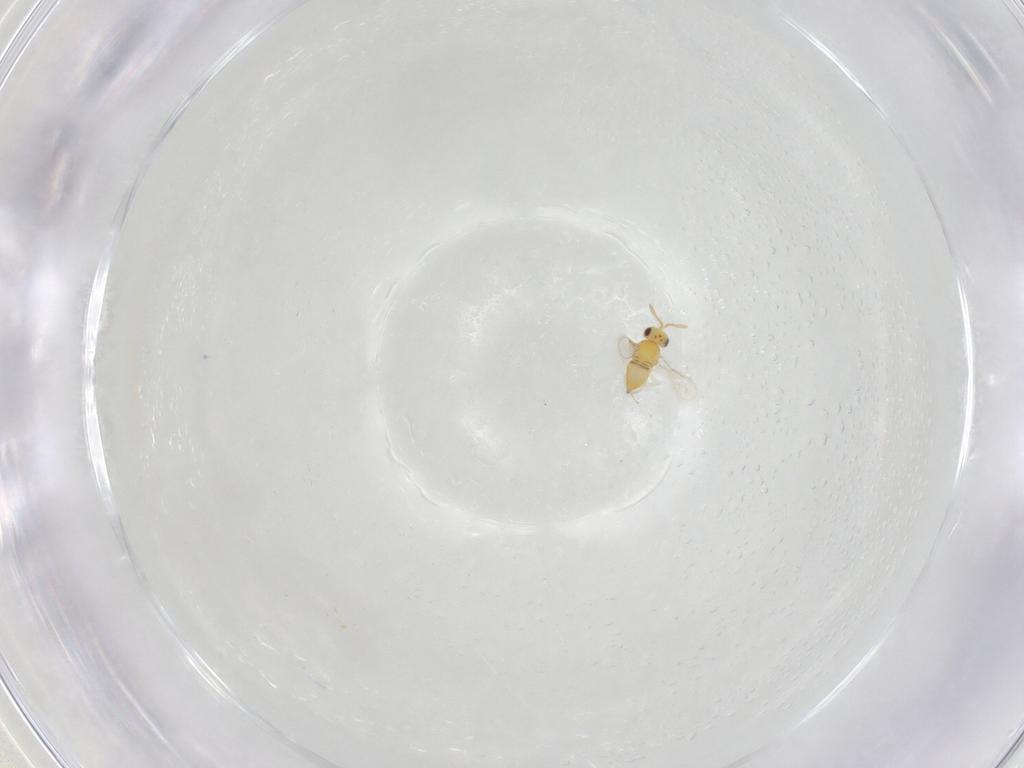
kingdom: Animalia
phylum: Arthropoda
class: Insecta
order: Hymenoptera
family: Aphelinidae
